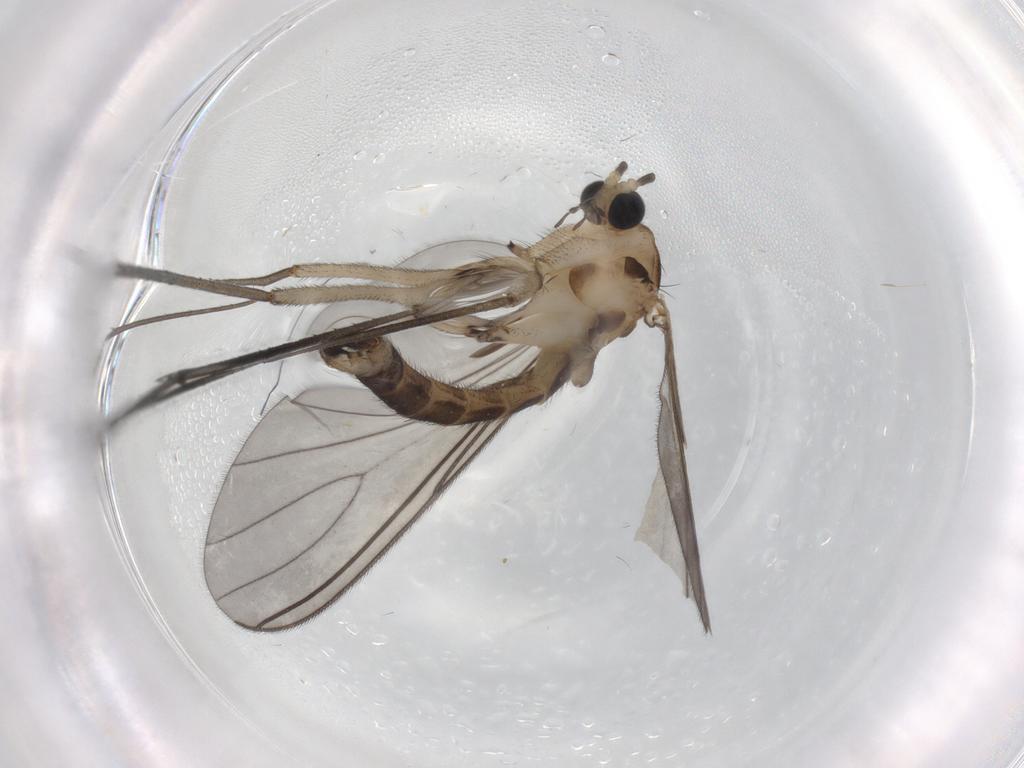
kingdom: Animalia
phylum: Arthropoda
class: Insecta
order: Diptera
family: Sciaridae
